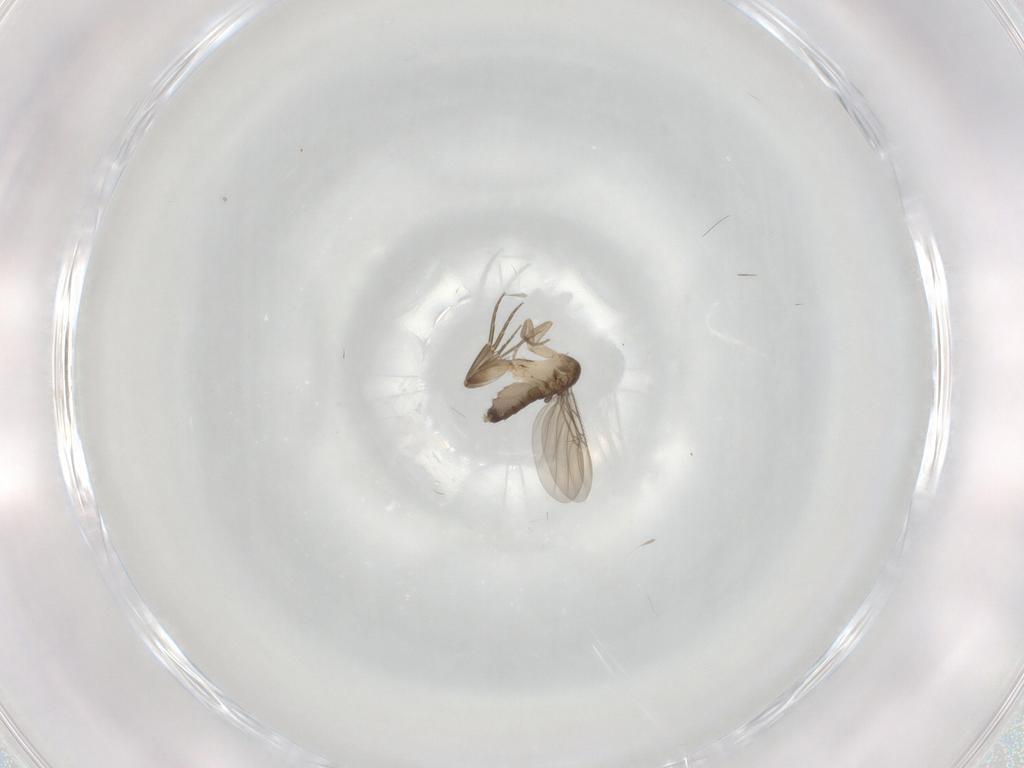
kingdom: Animalia
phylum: Arthropoda
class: Insecta
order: Diptera
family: Phoridae
